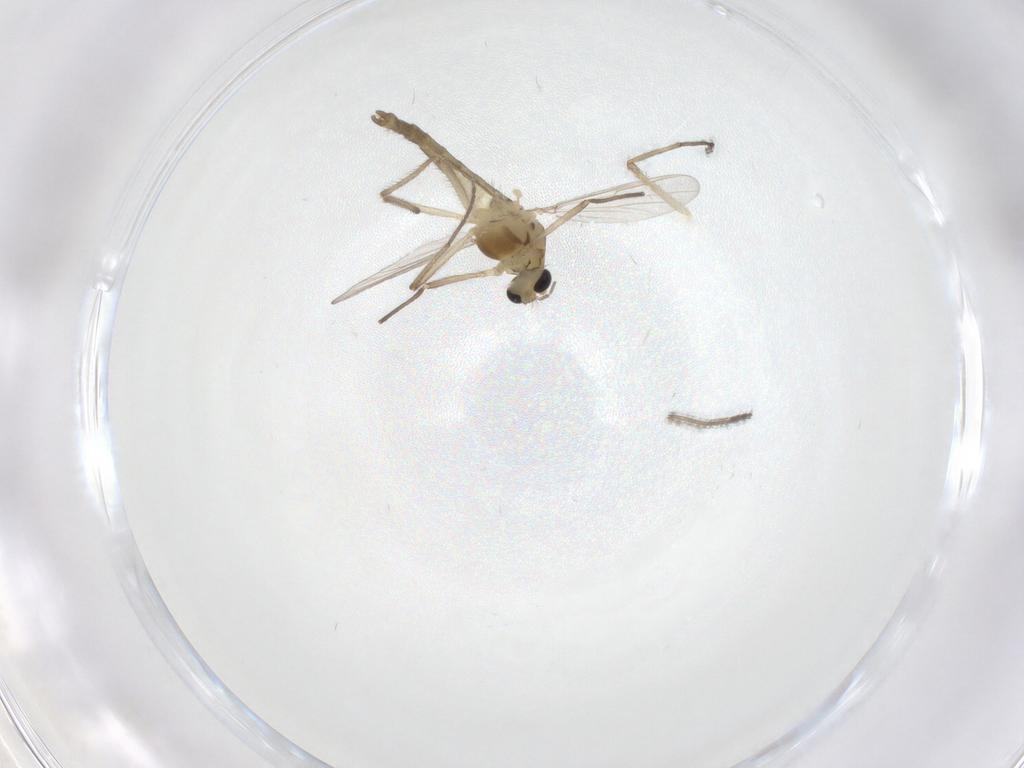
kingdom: Animalia
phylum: Arthropoda
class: Insecta
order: Diptera
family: Chironomidae
